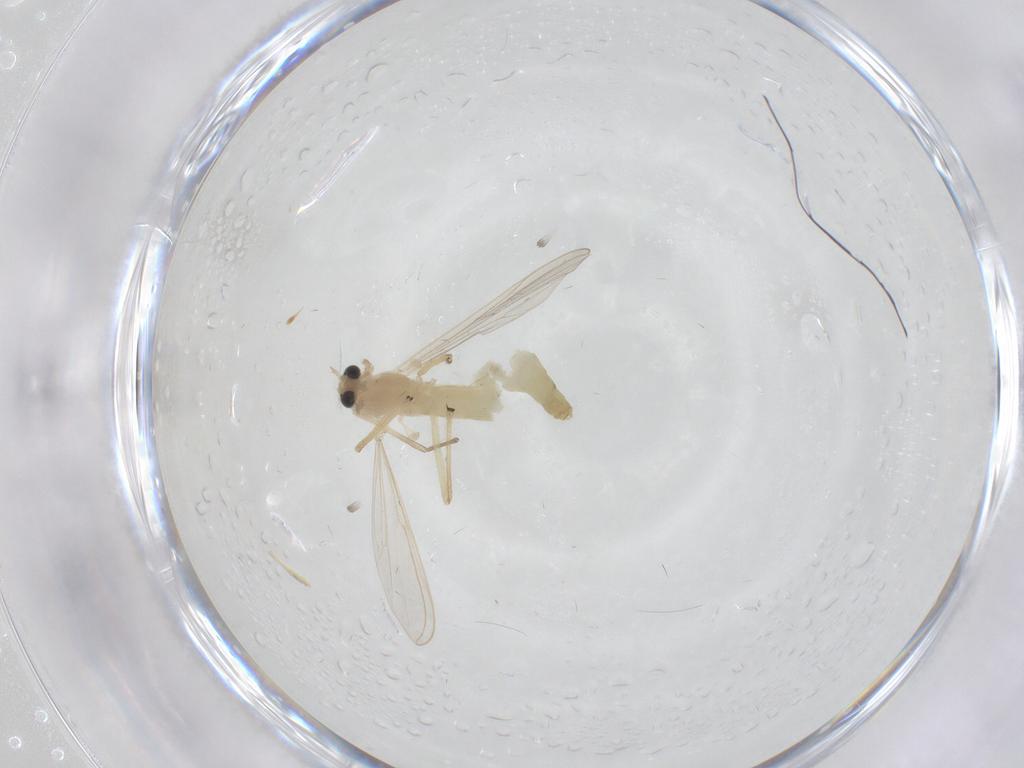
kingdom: Animalia
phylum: Arthropoda
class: Insecta
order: Diptera
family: Chironomidae
